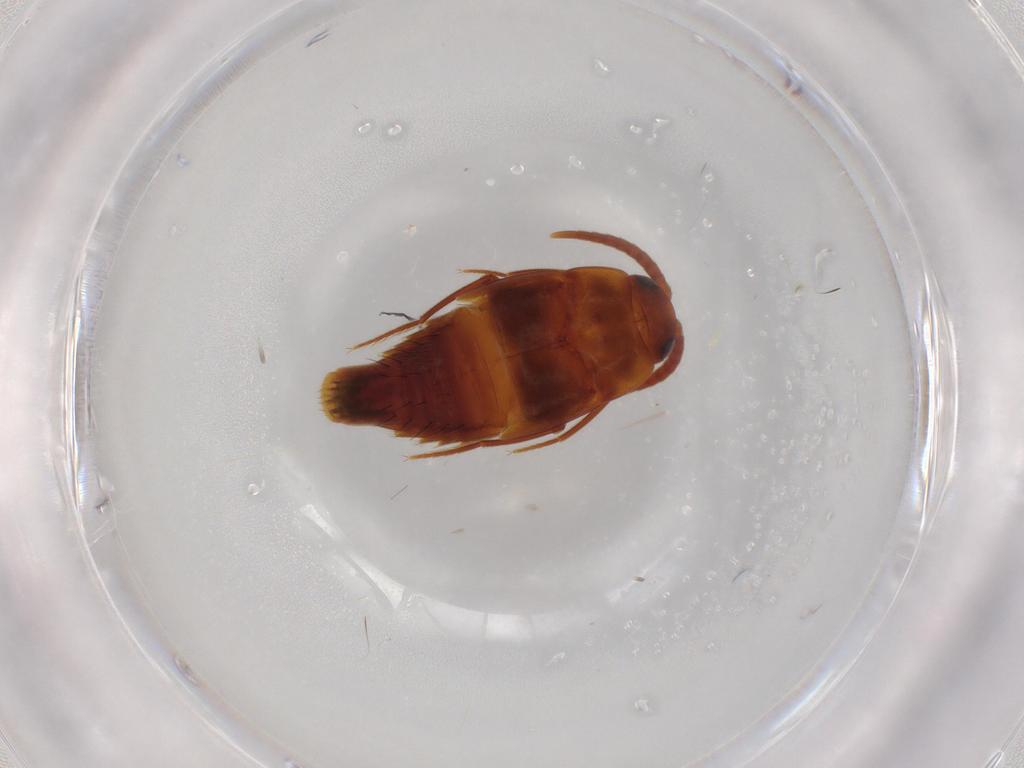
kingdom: Animalia
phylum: Arthropoda
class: Insecta
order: Coleoptera
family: Staphylinidae
